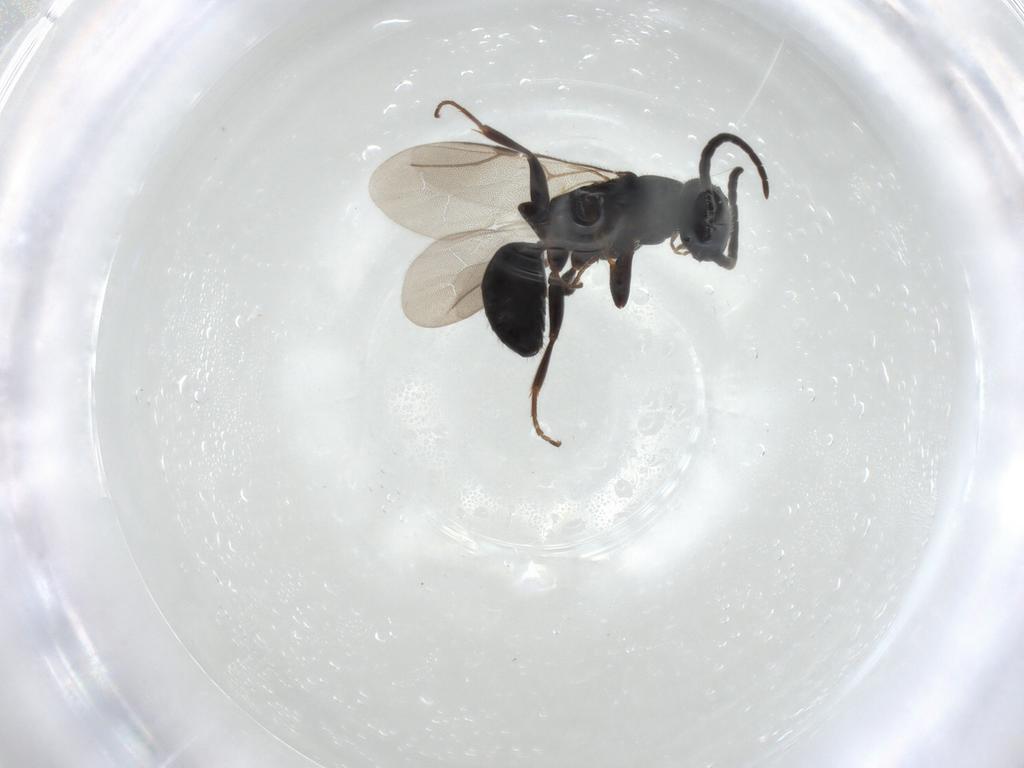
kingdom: Animalia
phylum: Arthropoda
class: Insecta
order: Hymenoptera
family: Bethylidae
